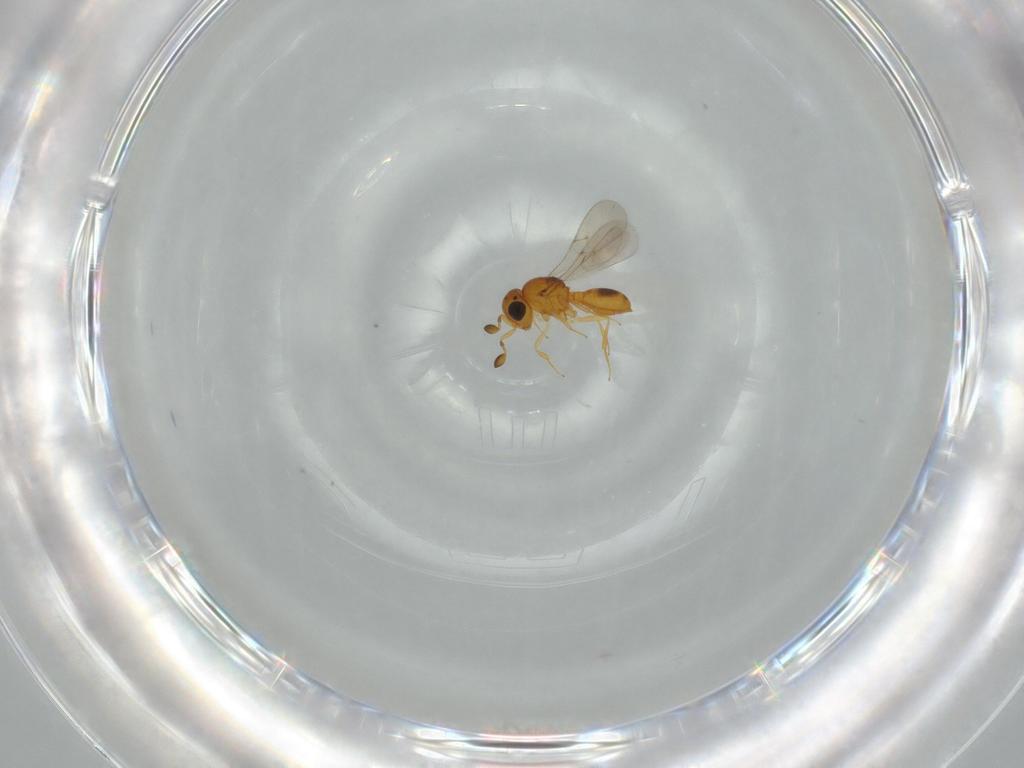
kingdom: Animalia
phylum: Arthropoda
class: Insecta
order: Hymenoptera
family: Scelionidae
